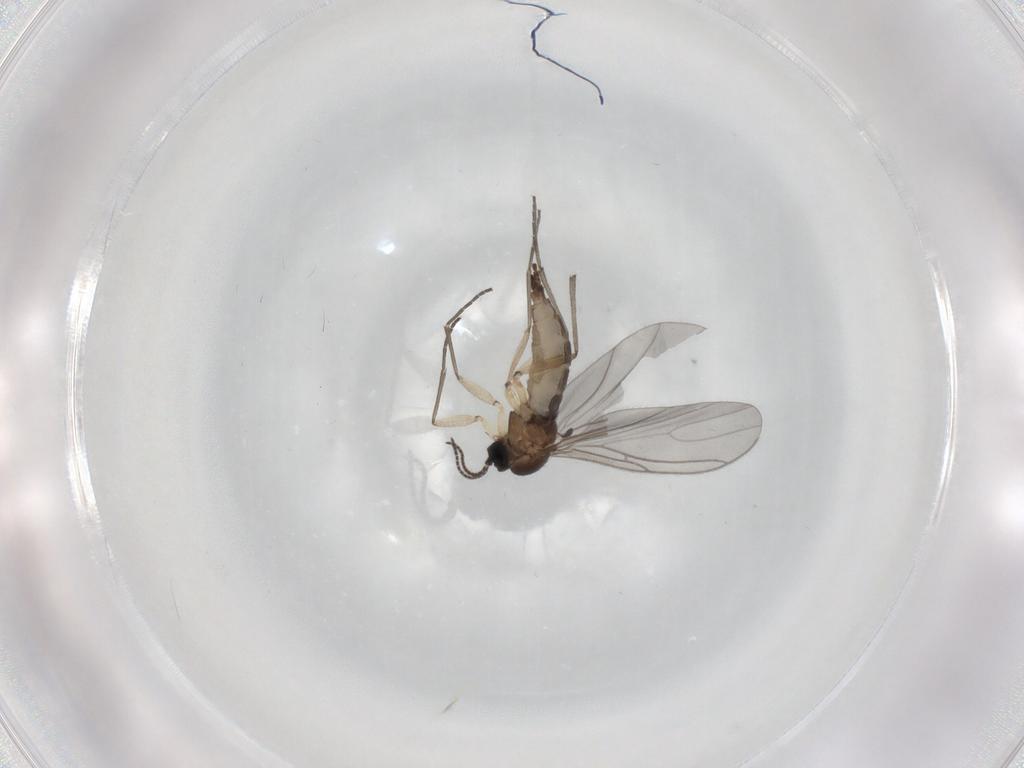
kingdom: Animalia
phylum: Arthropoda
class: Insecta
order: Diptera
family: Sciaridae
